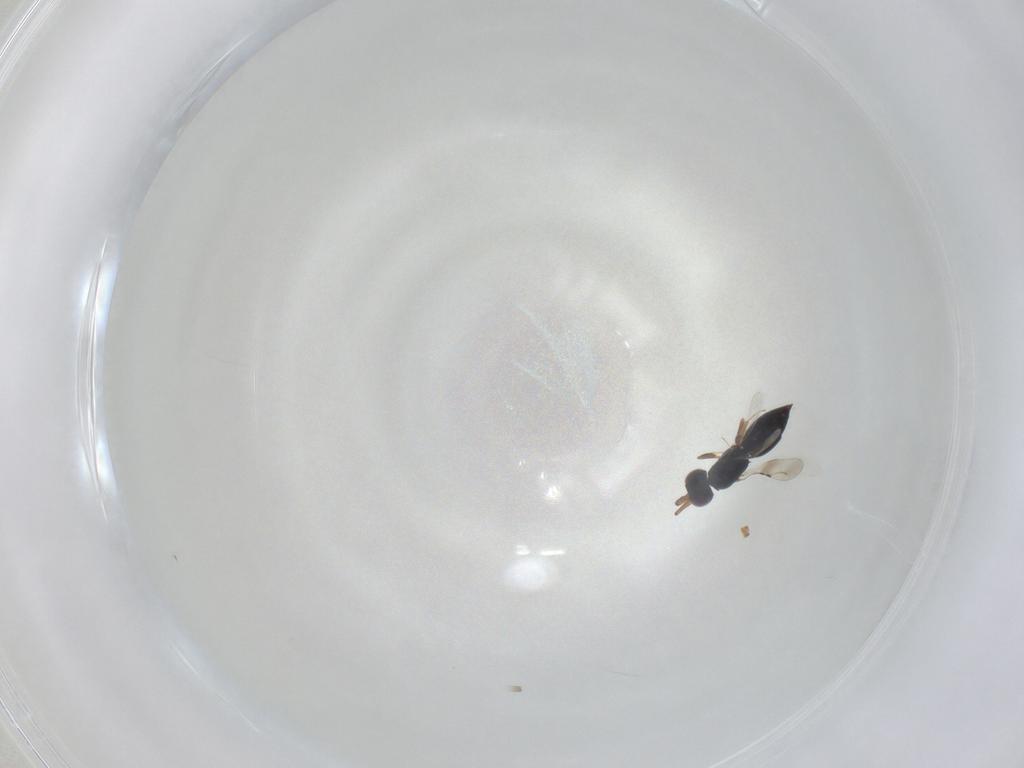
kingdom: Animalia
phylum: Arthropoda
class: Insecta
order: Hymenoptera
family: Formicidae
